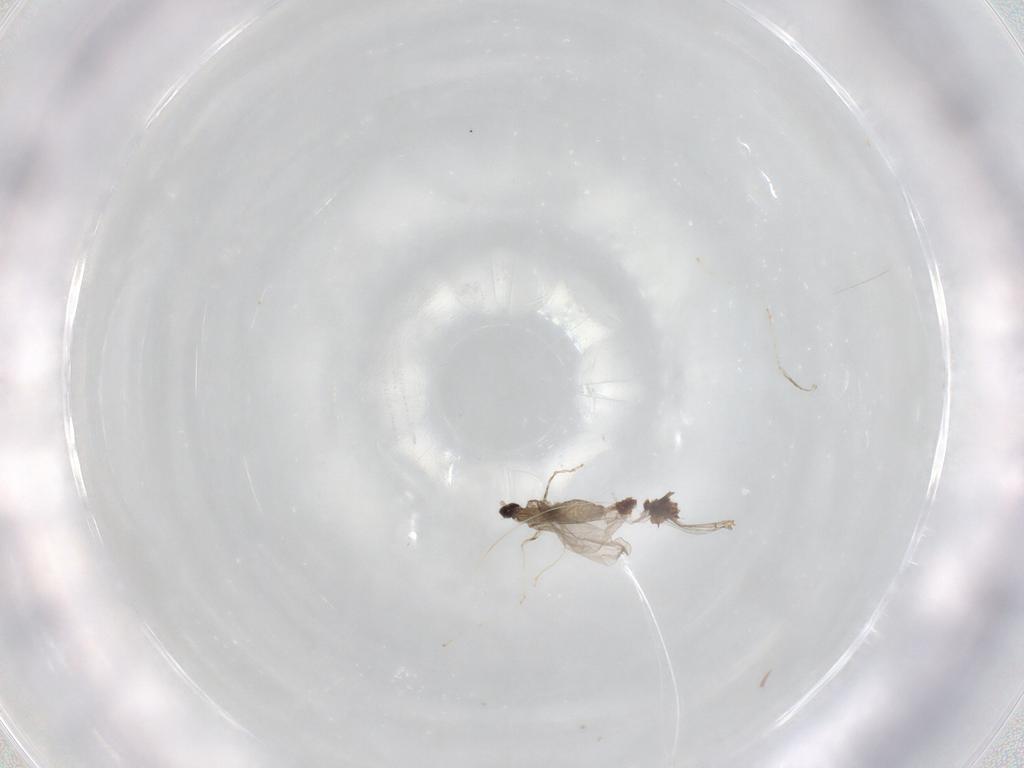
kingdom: Animalia
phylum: Arthropoda
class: Insecta
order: Diptera
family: Cecidomyiidae
